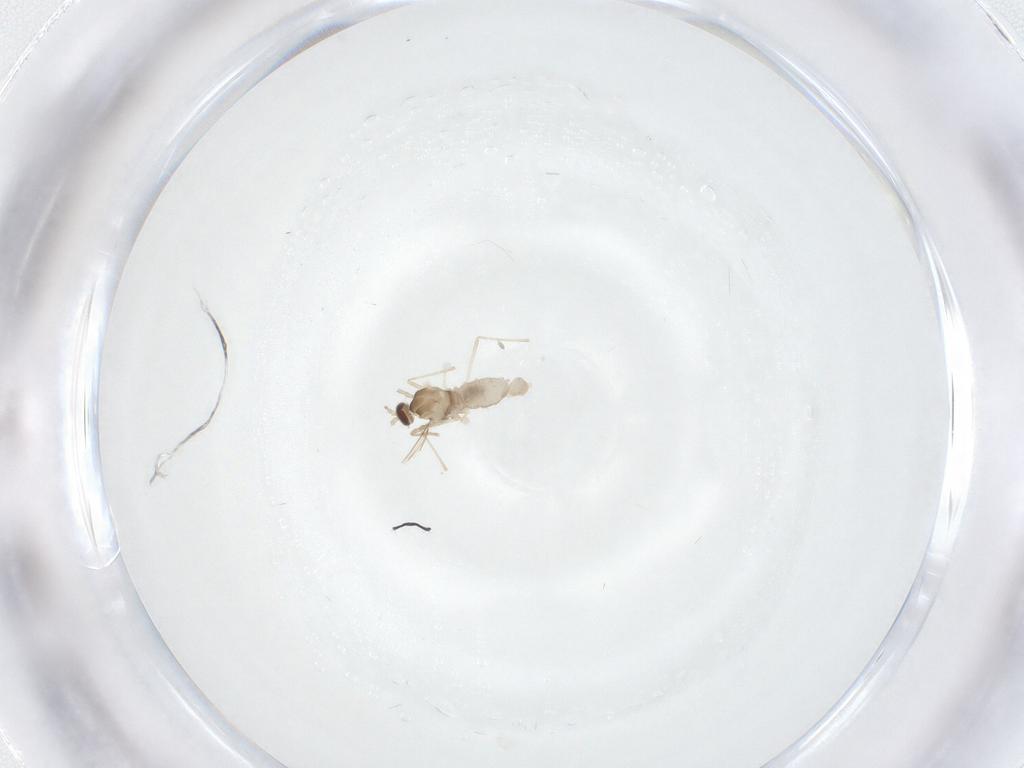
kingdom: Animalia
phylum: Arthropoda
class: Insecta
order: Diptera
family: Cecidomyiidae
